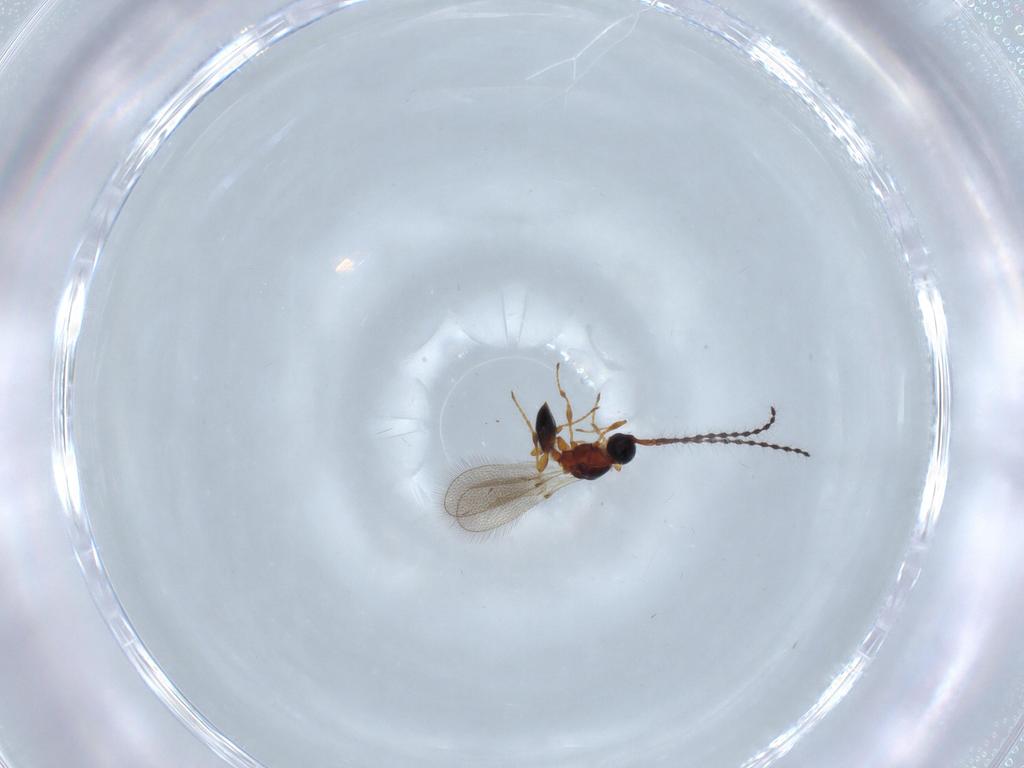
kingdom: Animalia
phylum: Arthropoda
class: Insecta
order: Hymenoptera
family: Diapriidae
